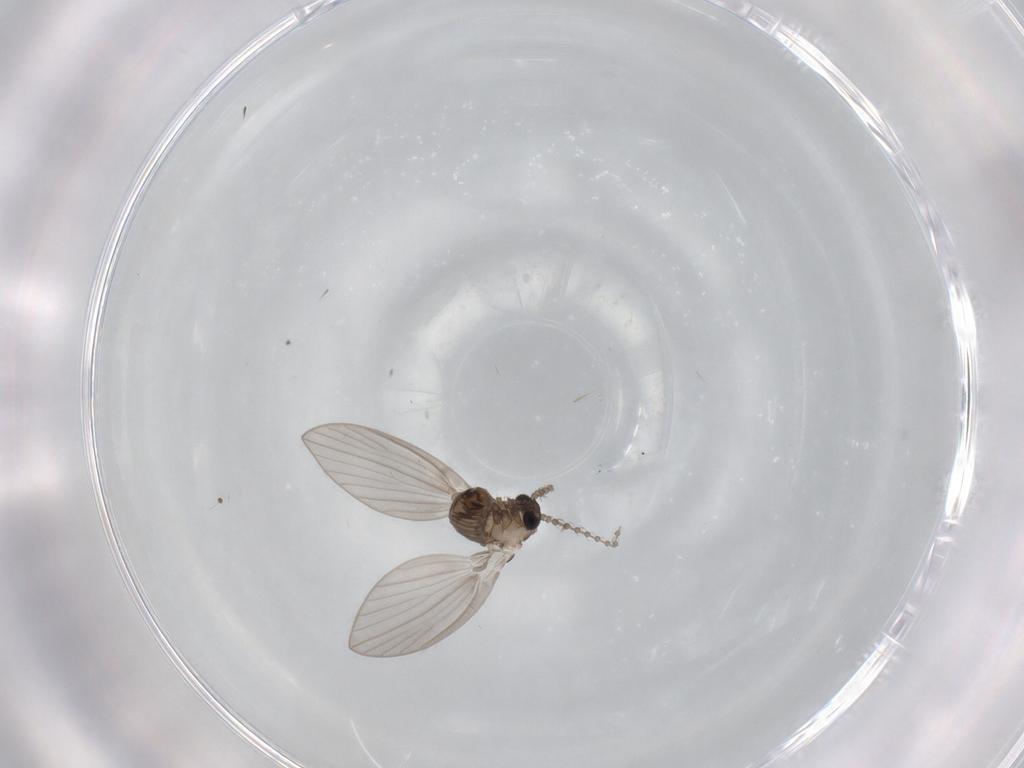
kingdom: Animalia
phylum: Arthropoda
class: Insecta
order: Diptera
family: Psychodidae
